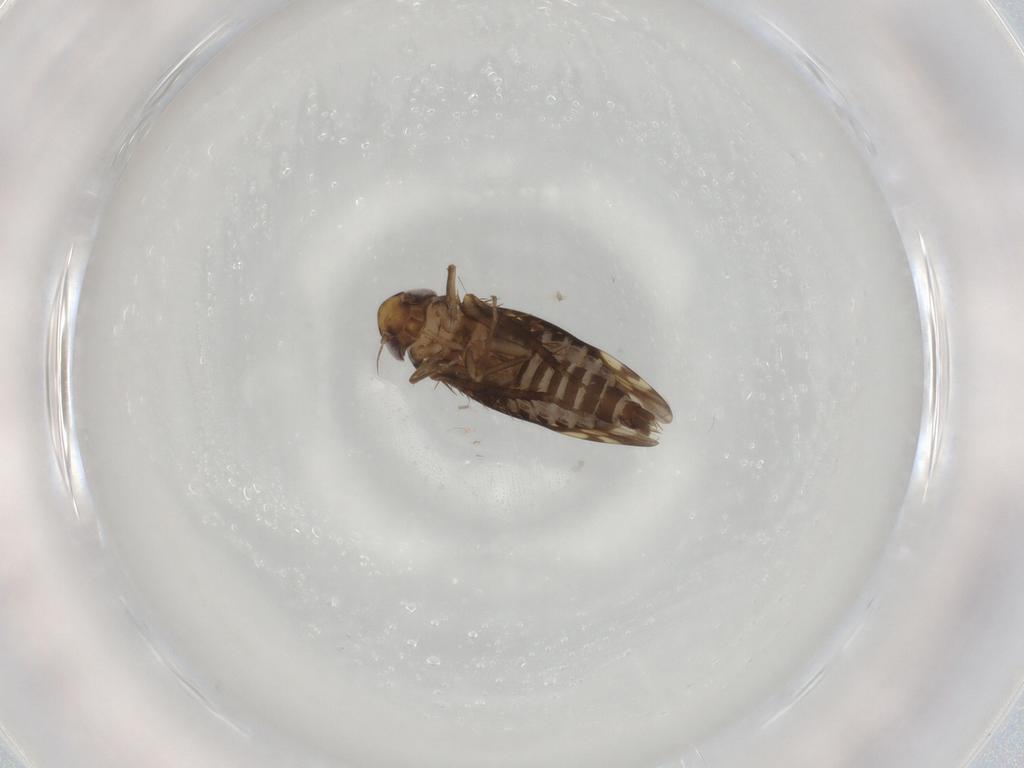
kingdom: Animalia
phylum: Arthropoda
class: Insecta
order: Hemiptera
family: Cicadellidae
